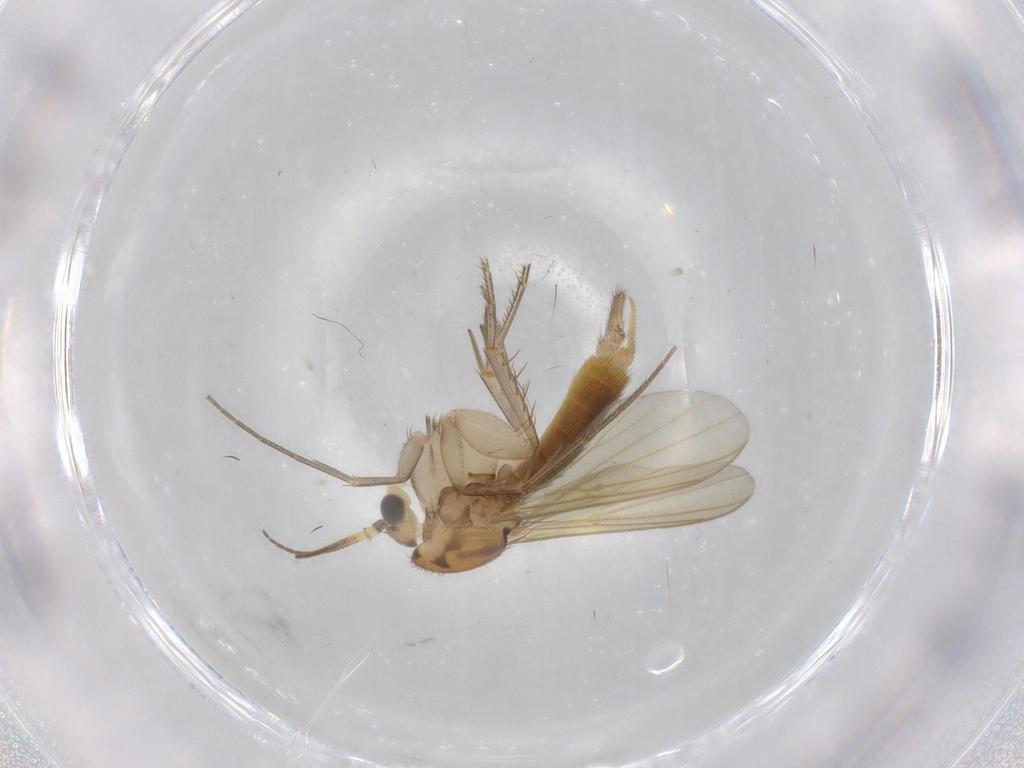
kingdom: Animalia
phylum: Arthropoda
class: Insecta
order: Diptera
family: Mycetophilidae
